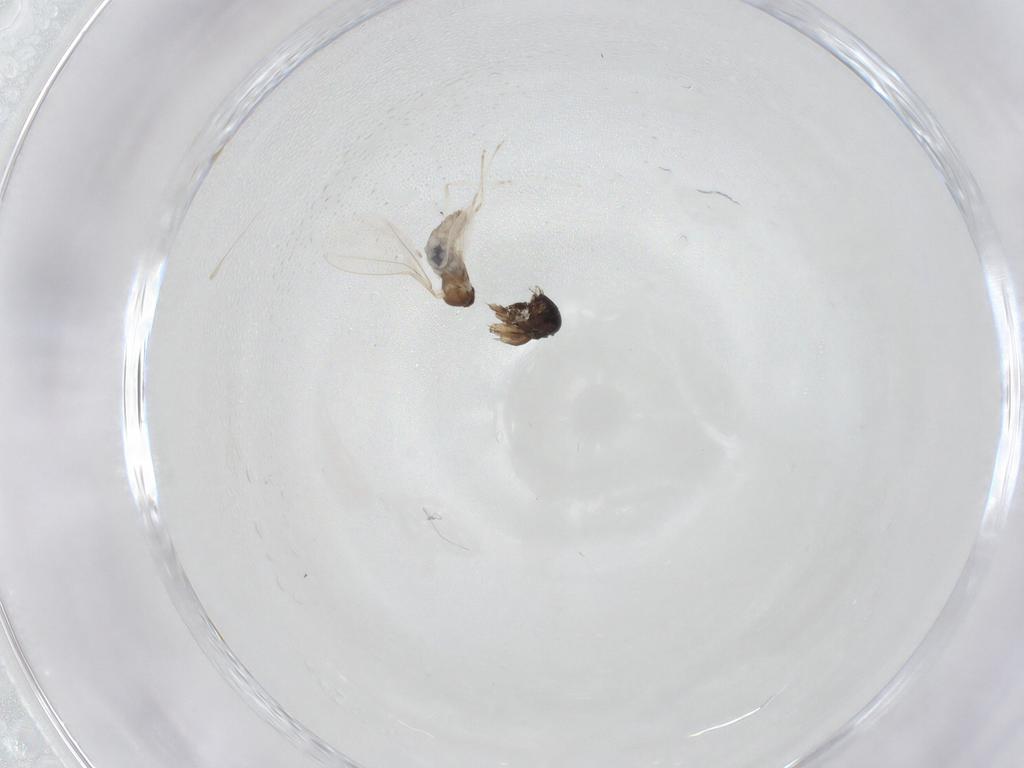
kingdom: Animalia
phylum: Arthropoda
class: Insecta
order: Diptera
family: Cecidomyiidae
